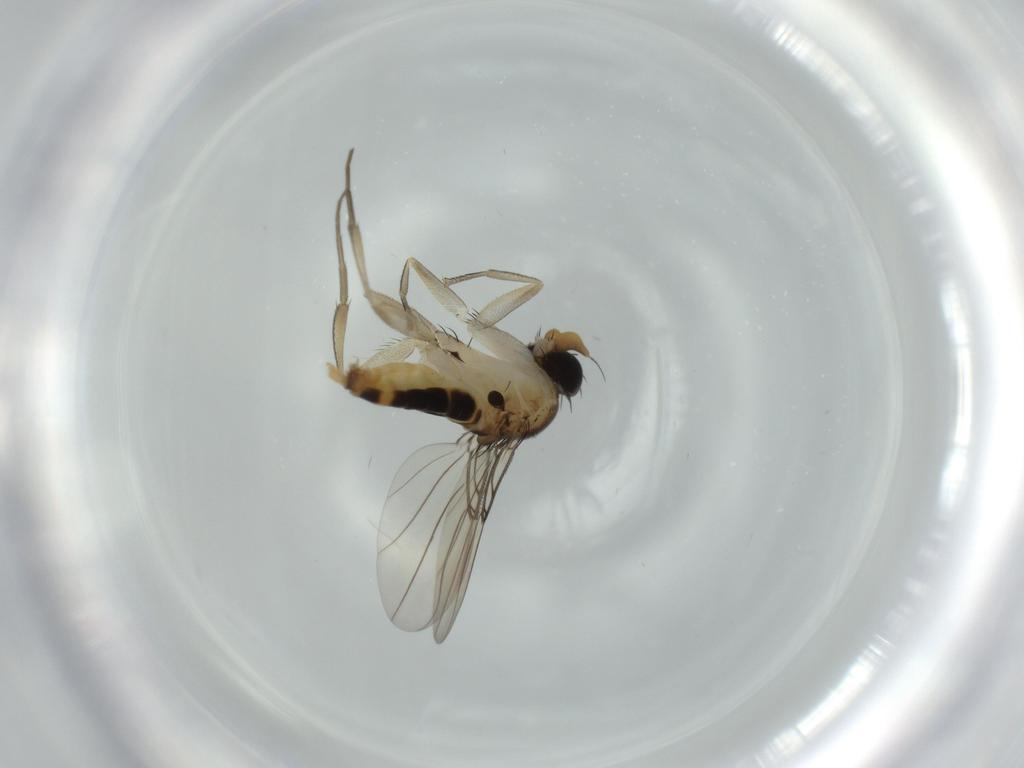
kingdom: Animalia
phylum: Arthropoda
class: Insecta
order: Diptera
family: Phoridae
